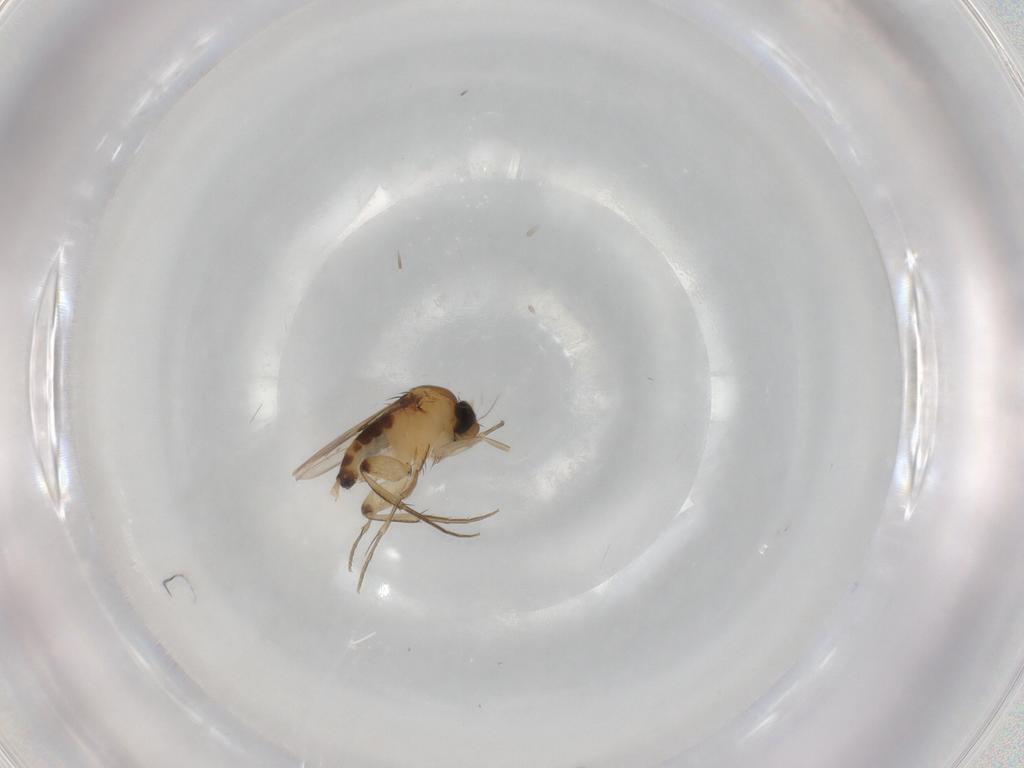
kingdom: Animalia
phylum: Arthropoda
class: Insecta
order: Diptera
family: Phoridae
